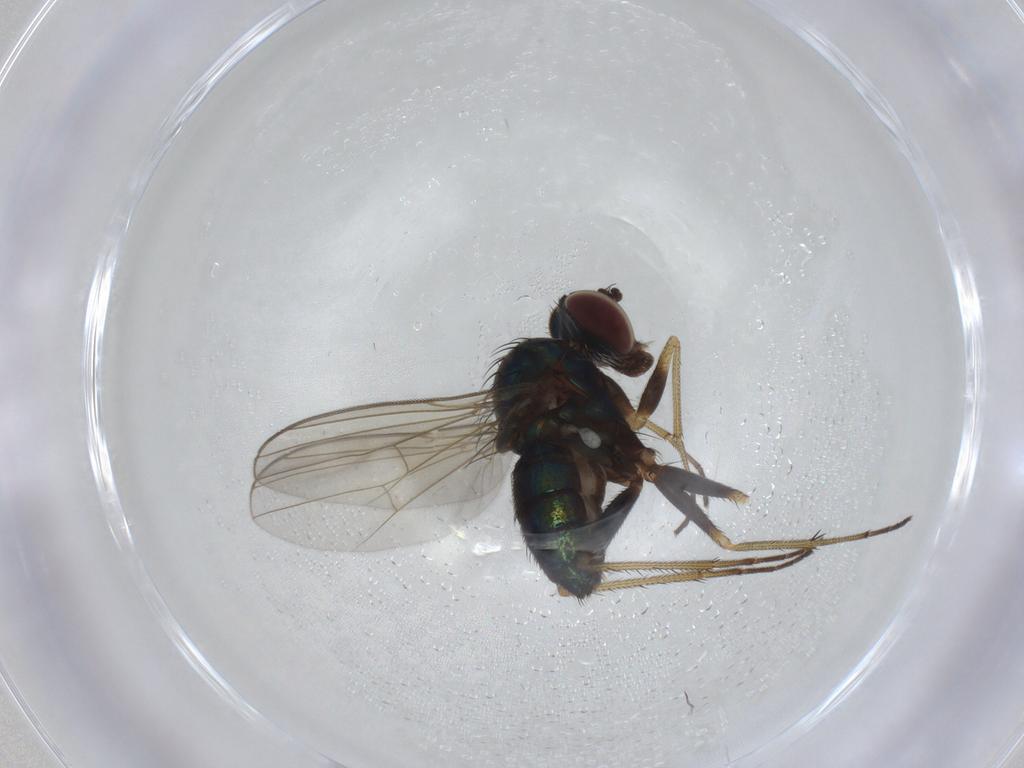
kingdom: Animalia
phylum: Arthropoda
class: Insecta
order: Diptera
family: Dolichopodidae
